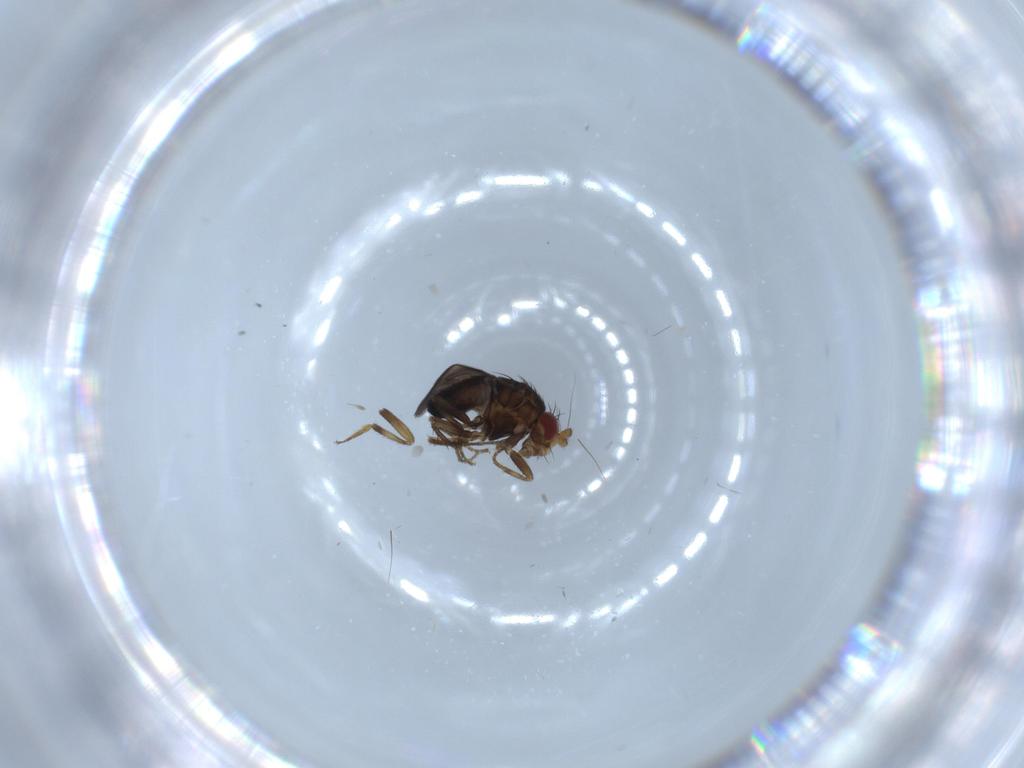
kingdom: Animalia
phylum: Arthropoda
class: Insecta
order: Diptera
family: Sphaeroceridae
